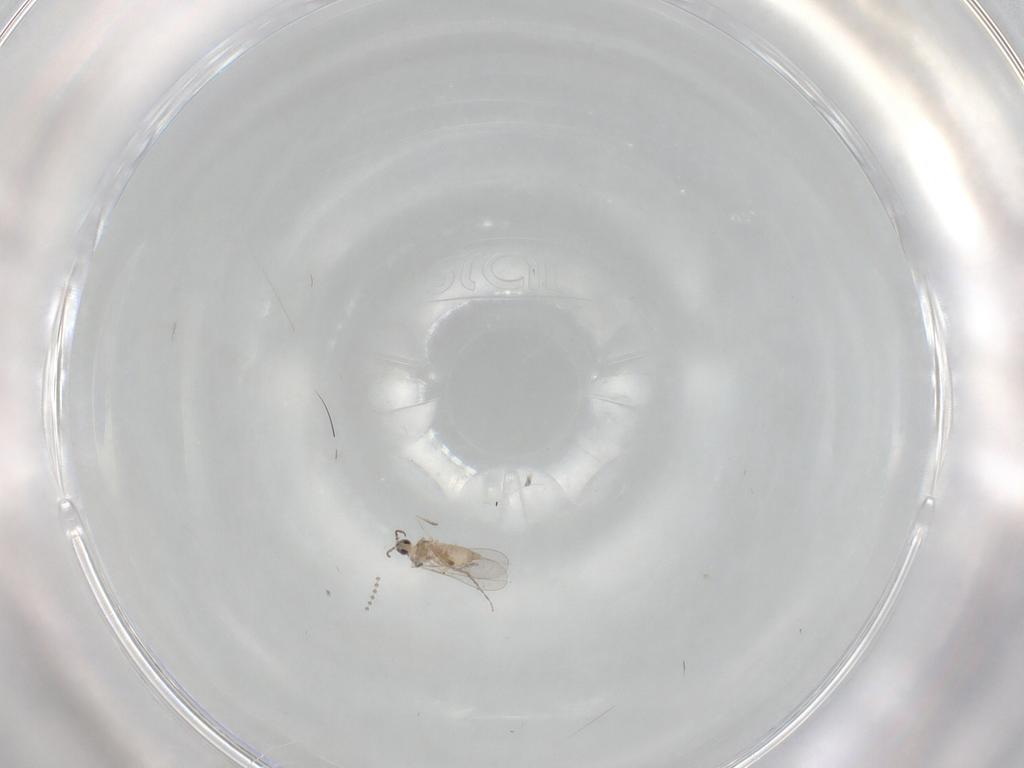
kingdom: Animalia
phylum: Arthropoda
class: Insecta
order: Diptera
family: Cecidomyiidae
